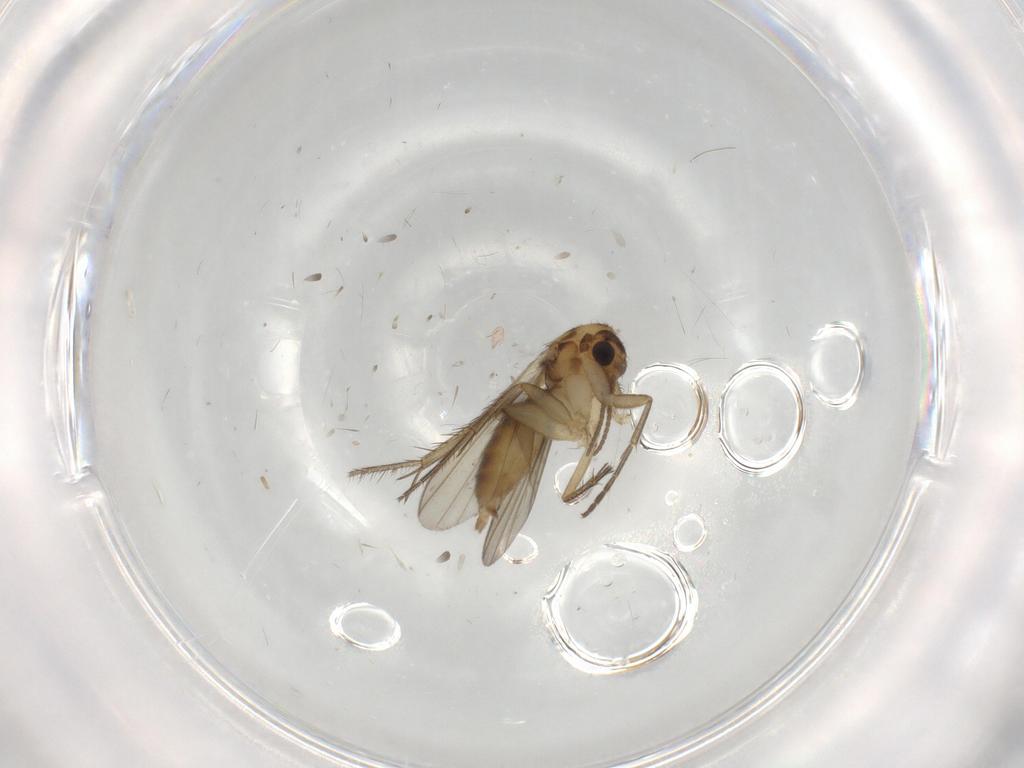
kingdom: Animalia
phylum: Arthropoda
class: Insecta
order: Diptera
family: Mycetophilidae
